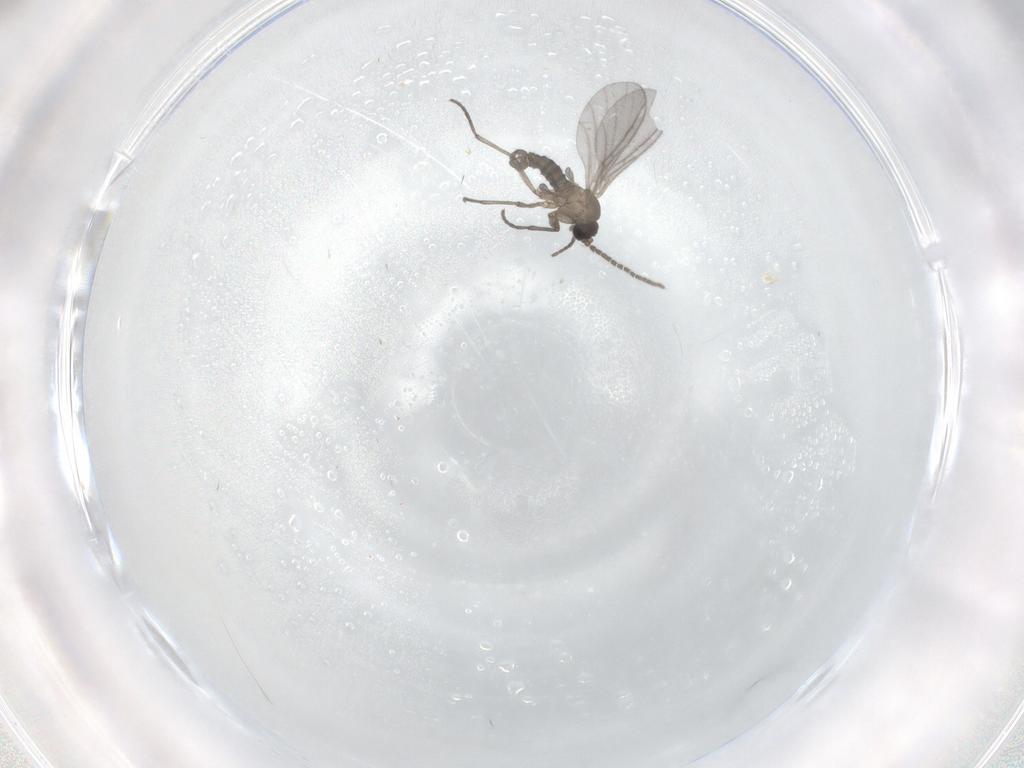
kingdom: Animalia
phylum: Arthropoda
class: Insecta
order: Diptera
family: Sciaridae
